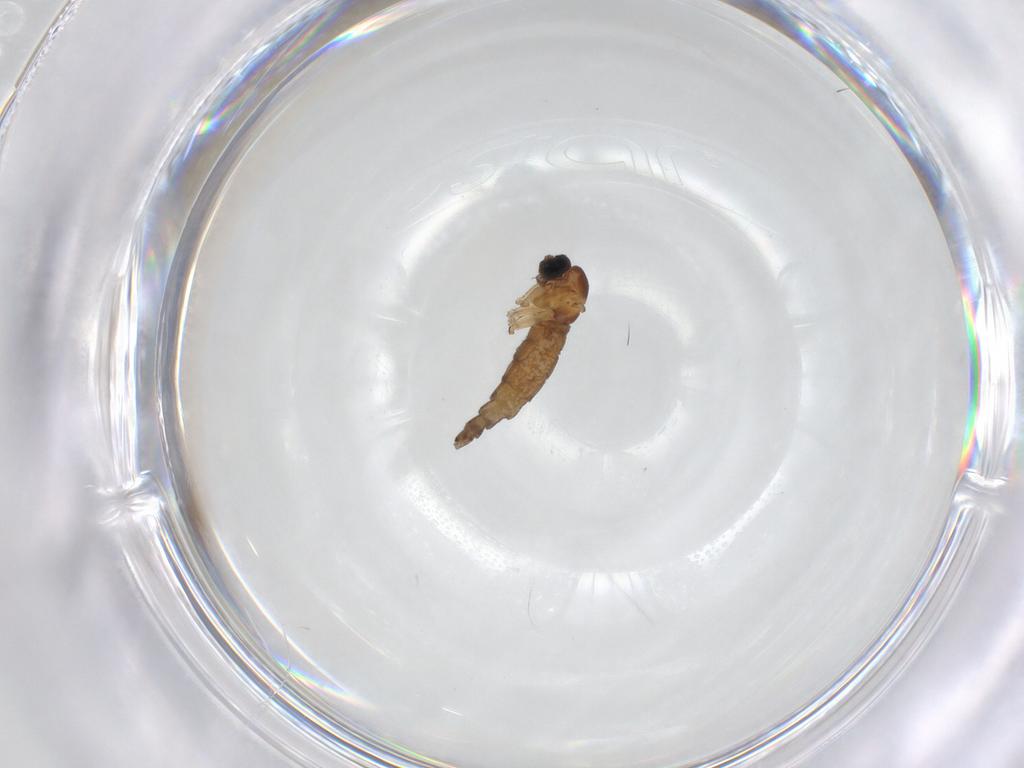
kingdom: Animalia
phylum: Arthropoda
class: Insecta
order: Diptera
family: Sciaridae
